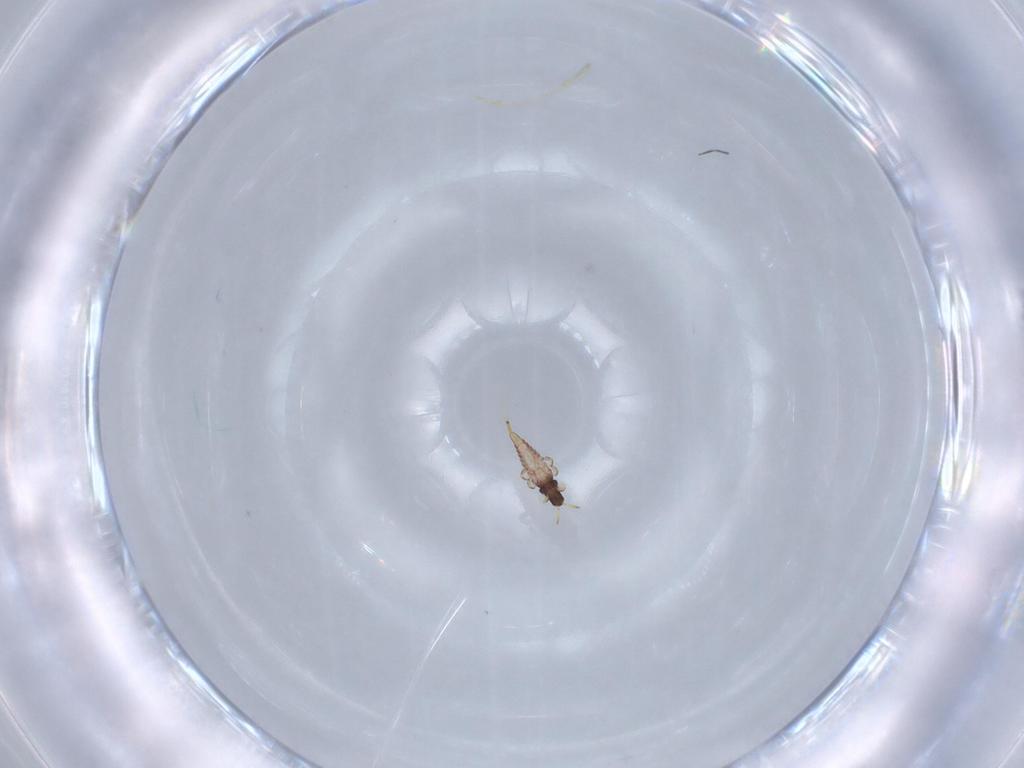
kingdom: Animalia
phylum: Arthropoda
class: Insecta
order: Thysanoptera
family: Phlaeothripidae
